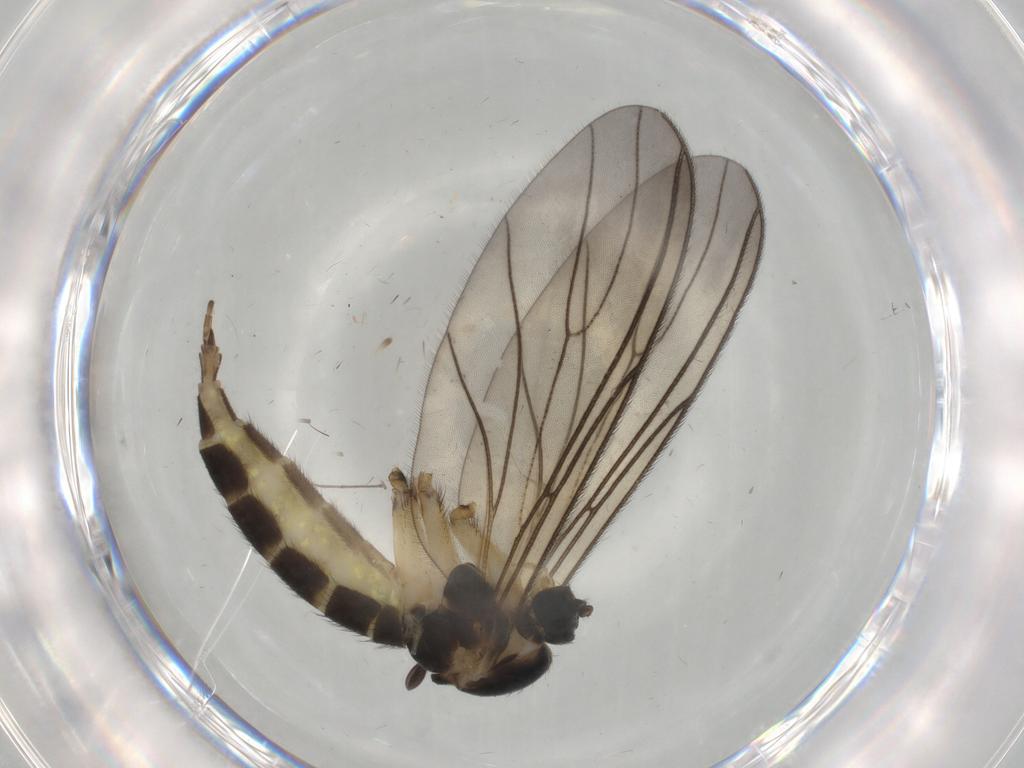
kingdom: Animalia
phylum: Arthropoda
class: Insecta
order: Diptera
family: Sciaridae
